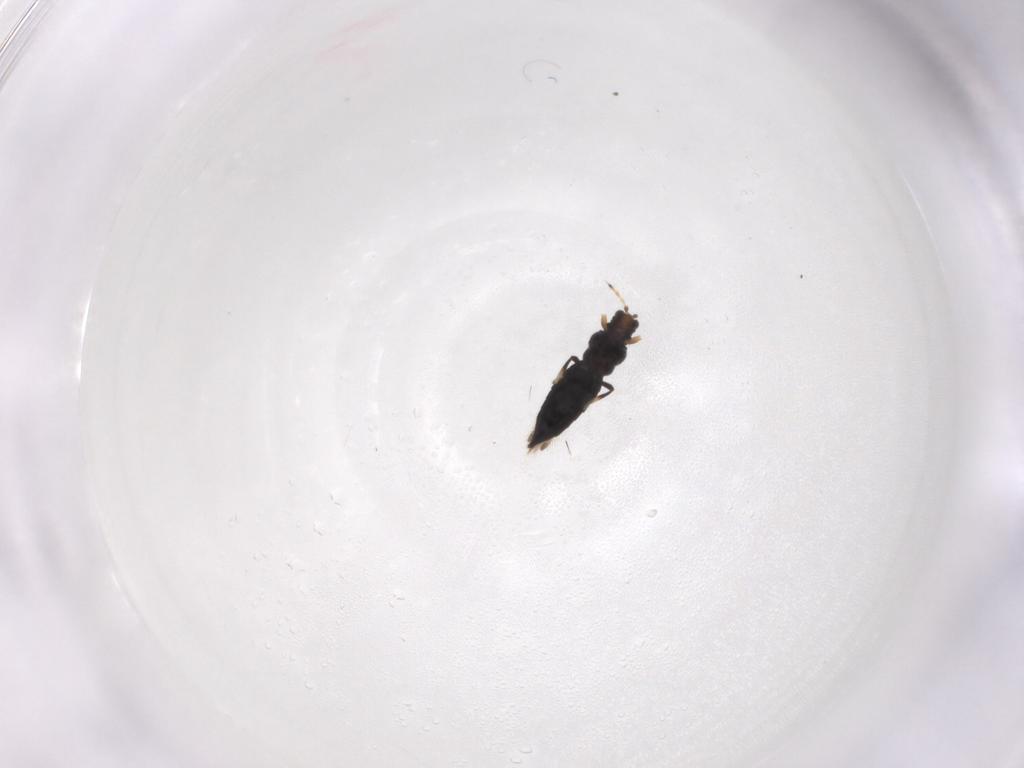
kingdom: Animalia
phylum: Arthropoda
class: Insecta
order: Thysanoptera
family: Thripidae
